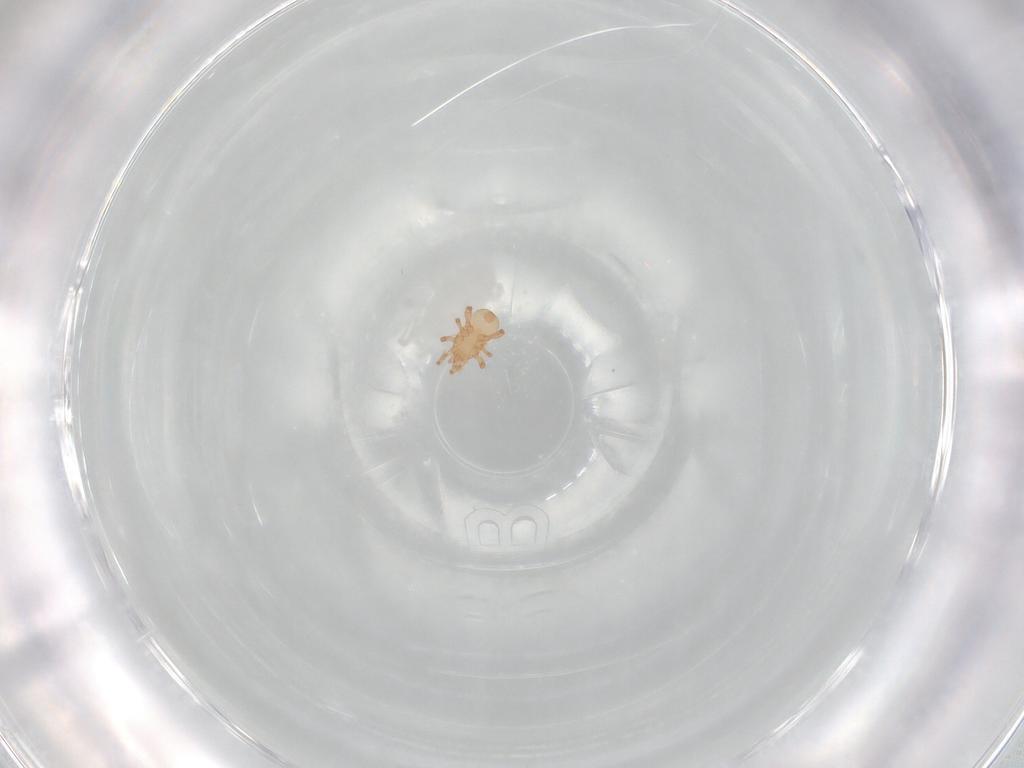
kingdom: Animalia
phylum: Arthropoda
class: Arachnida
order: Mesostigmata
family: Ascidae
